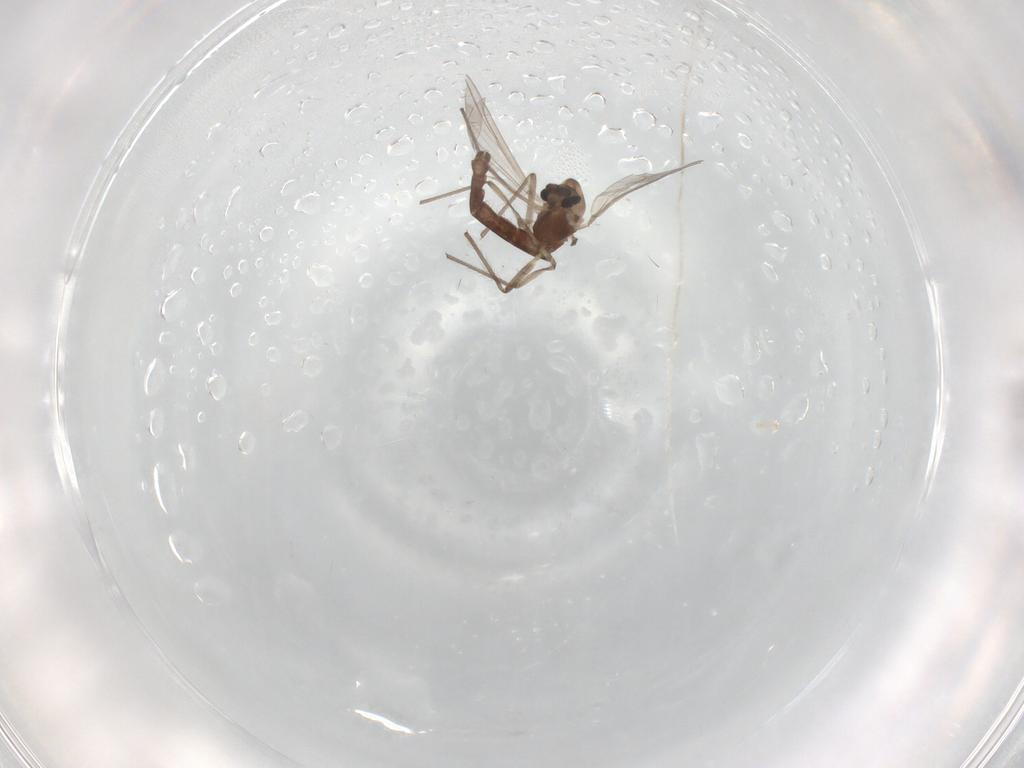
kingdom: Animalia
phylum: Arthropoda
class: Insecta
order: Diptera
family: Chironomidae
